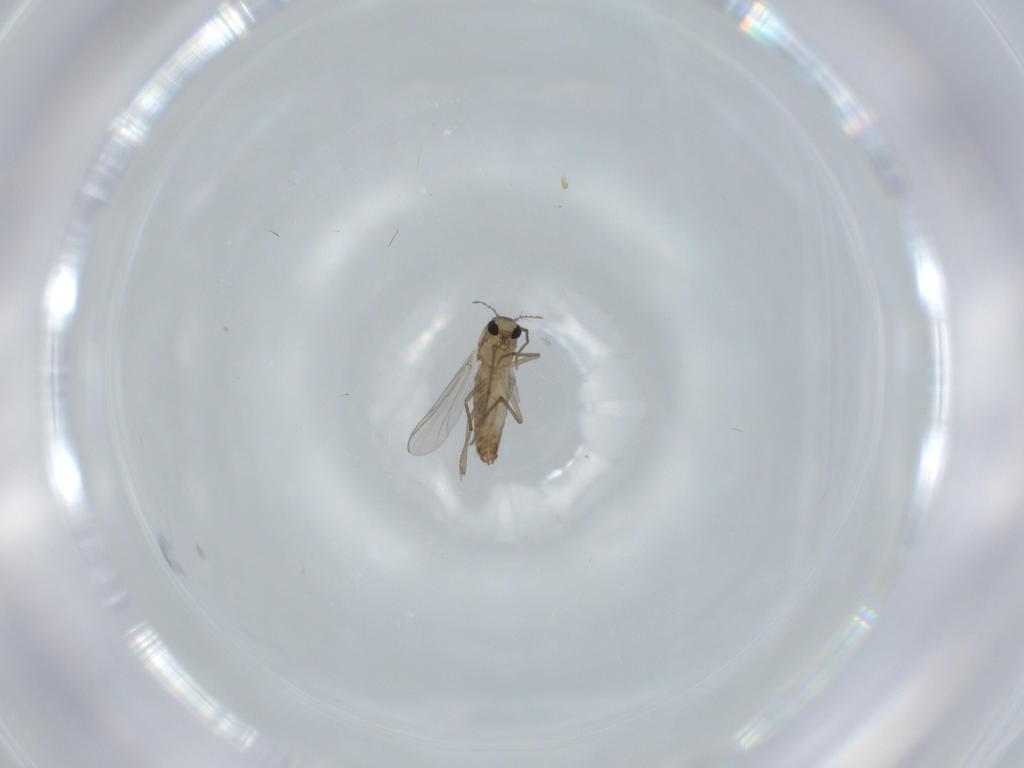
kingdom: Animalia
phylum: Arthropoda
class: Insecta
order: Diptera
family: Chironomidae
